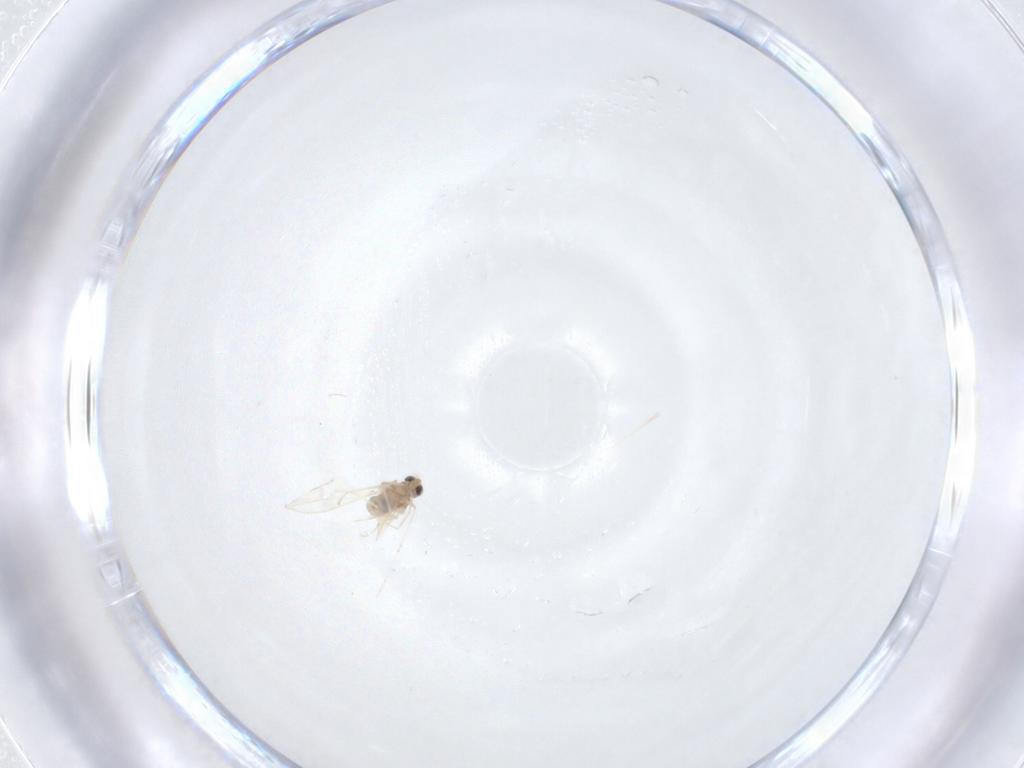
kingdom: Animalia
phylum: Arthropoda
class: Insecta
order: Diptera
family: Cecidomyiidae
